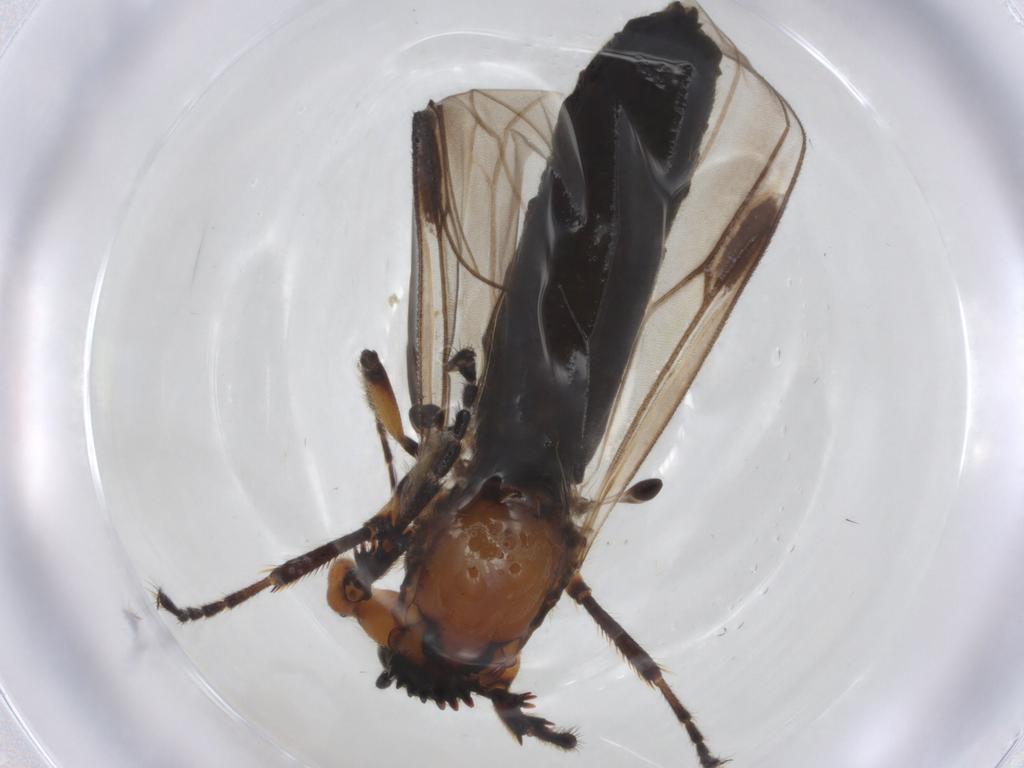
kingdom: Animalia
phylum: Arthropoda
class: Insecta
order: Diptera
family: Bibionidae
